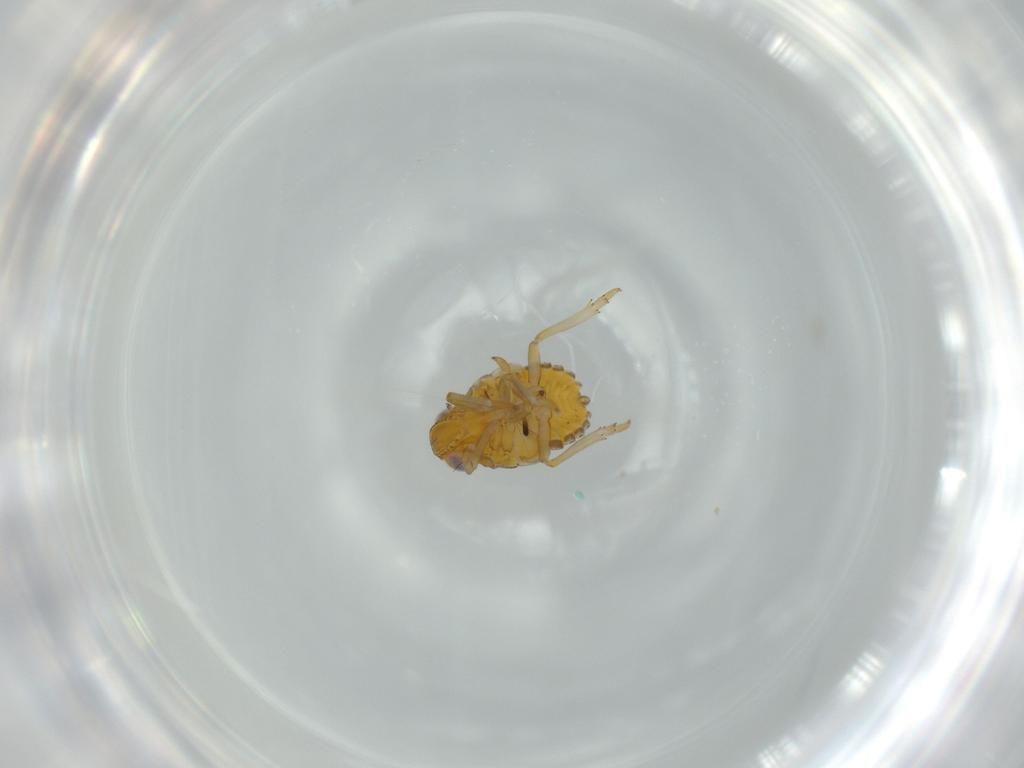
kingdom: Animalia
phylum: Arthropoda
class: Insecta
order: Hemiptera
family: Issidae
